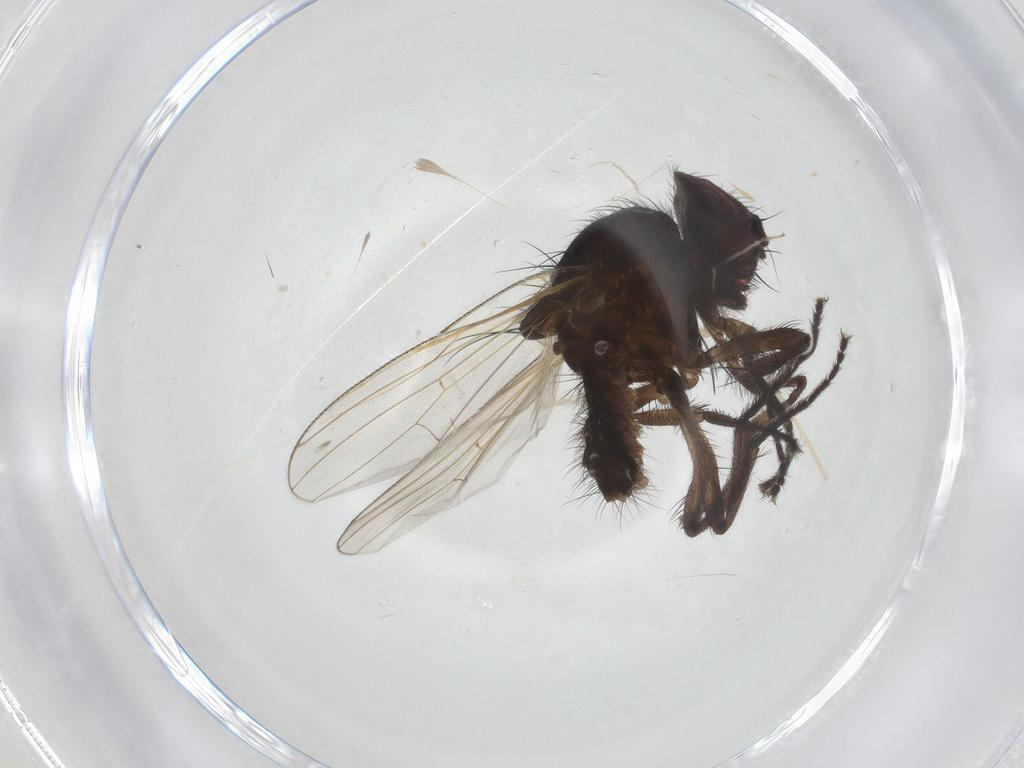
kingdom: Animalia
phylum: Arthropoda
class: Insecta
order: Diptera
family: Muscidae
